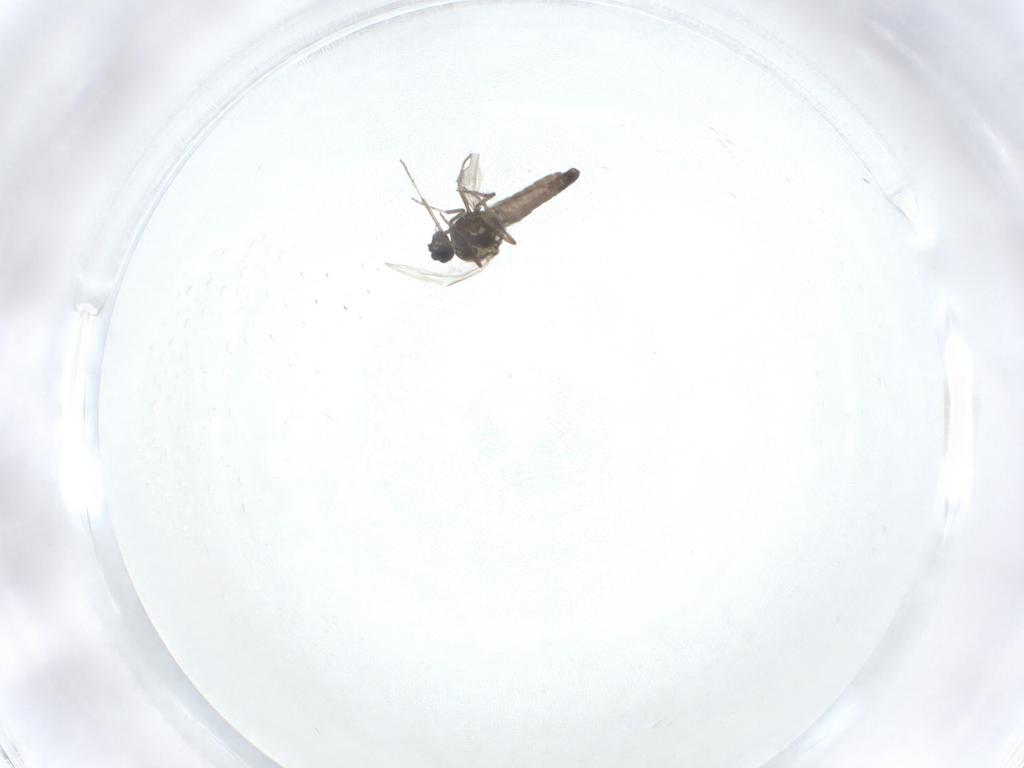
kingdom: Animalia
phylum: Arthropoda
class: Insecta
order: Diptera
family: Ceratopogonidae
